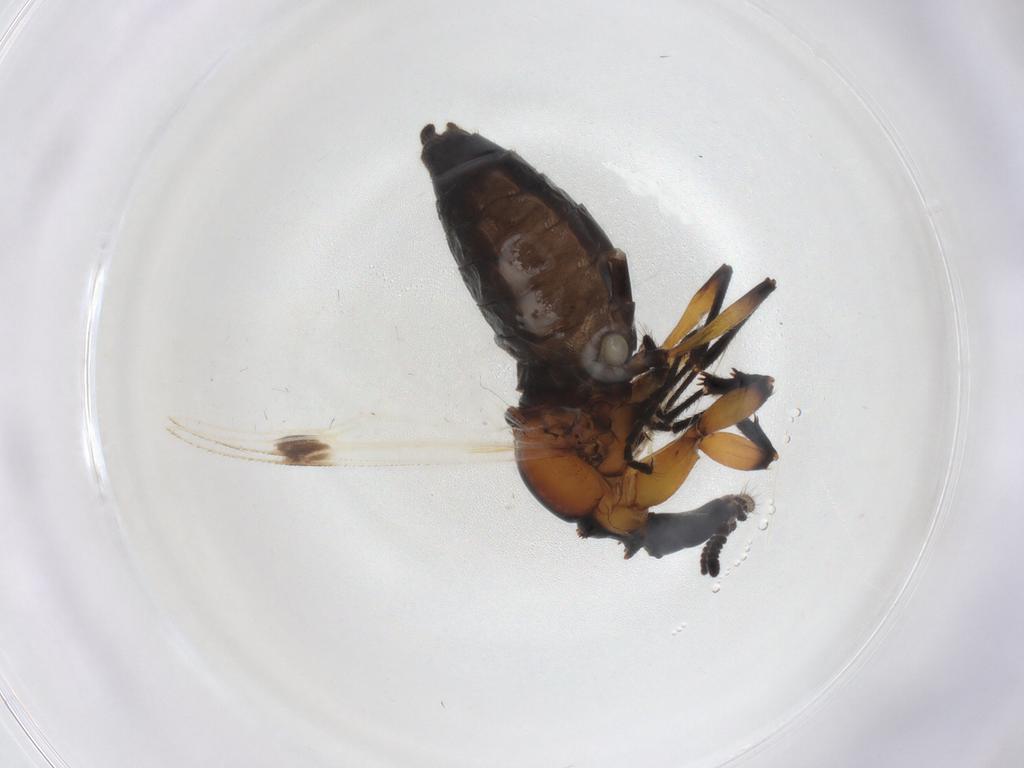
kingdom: Animalia
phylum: Arthropoda
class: Insecta
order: Diptera
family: Bibionidae
